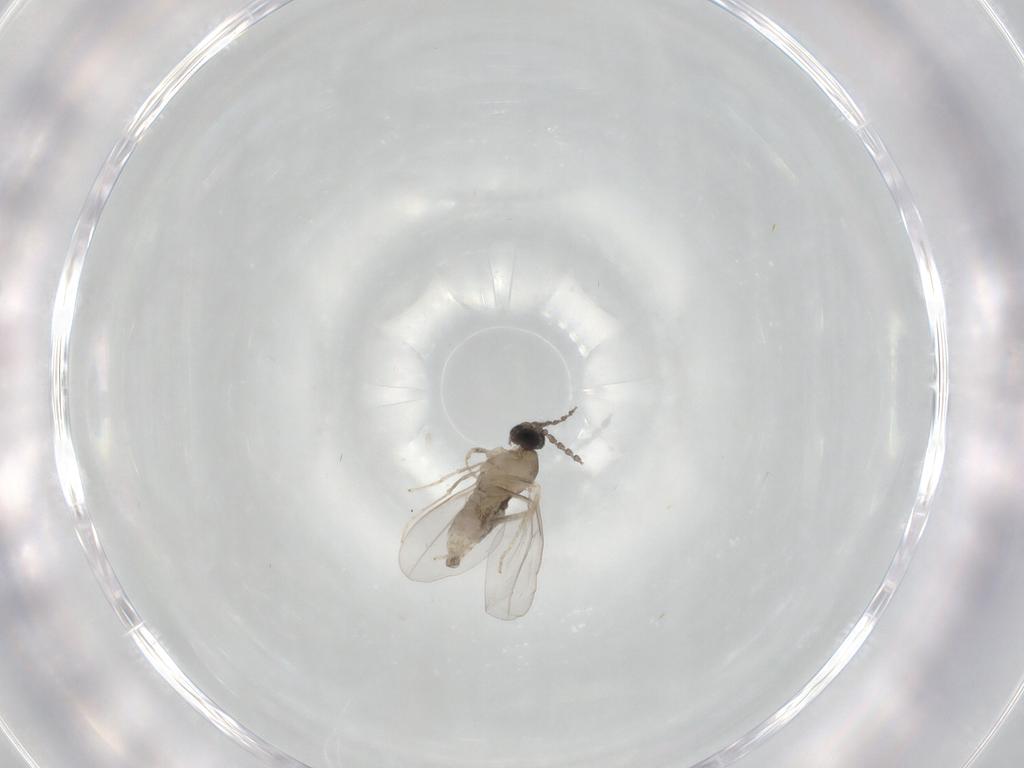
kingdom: Animalia
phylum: Arthropoda
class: Insecta
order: Diptera
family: Cecidomyiidae
